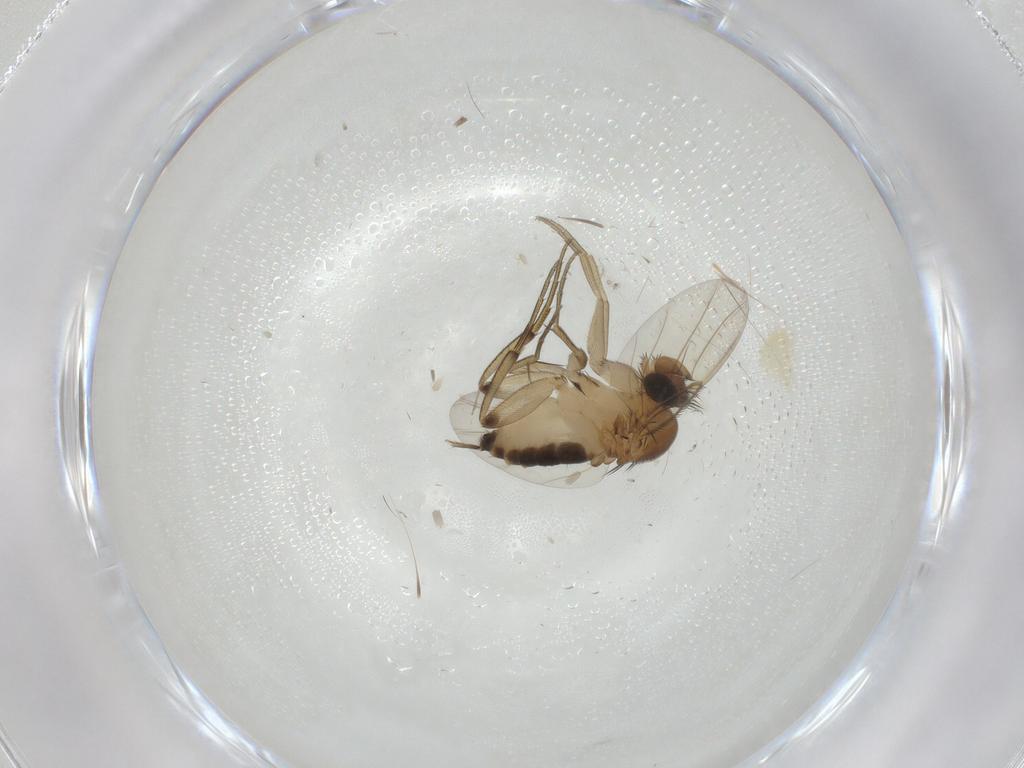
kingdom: Animalia
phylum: Arthropoda
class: Insecta
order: Diptera
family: Phoridae
